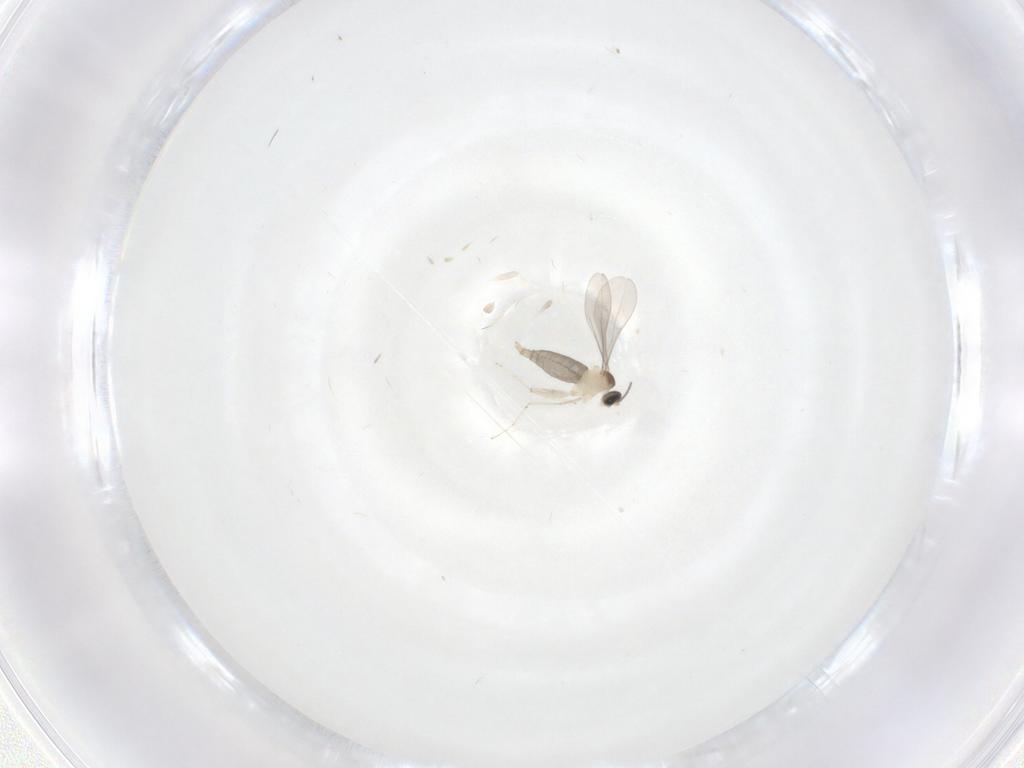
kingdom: Animalia
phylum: Arthropoda
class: Insecta
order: Diptera
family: Cecidomyiidae
